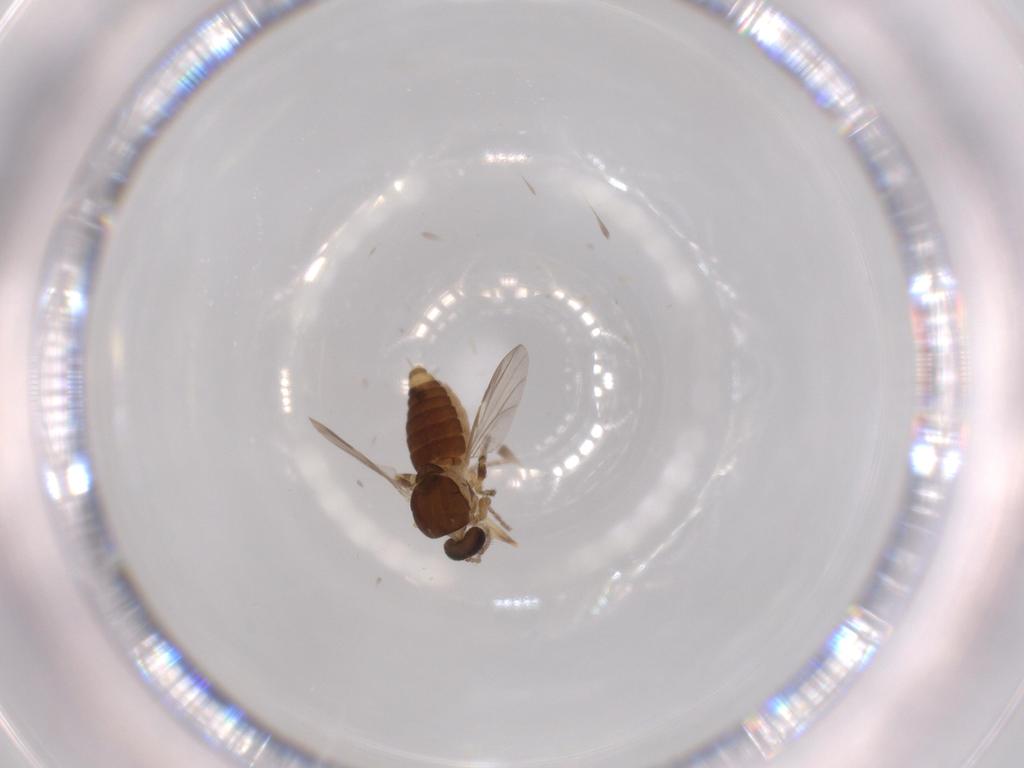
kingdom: Animalia
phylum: Arthropoda
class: Insecta
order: Diptera
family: Ceratopogonidae
